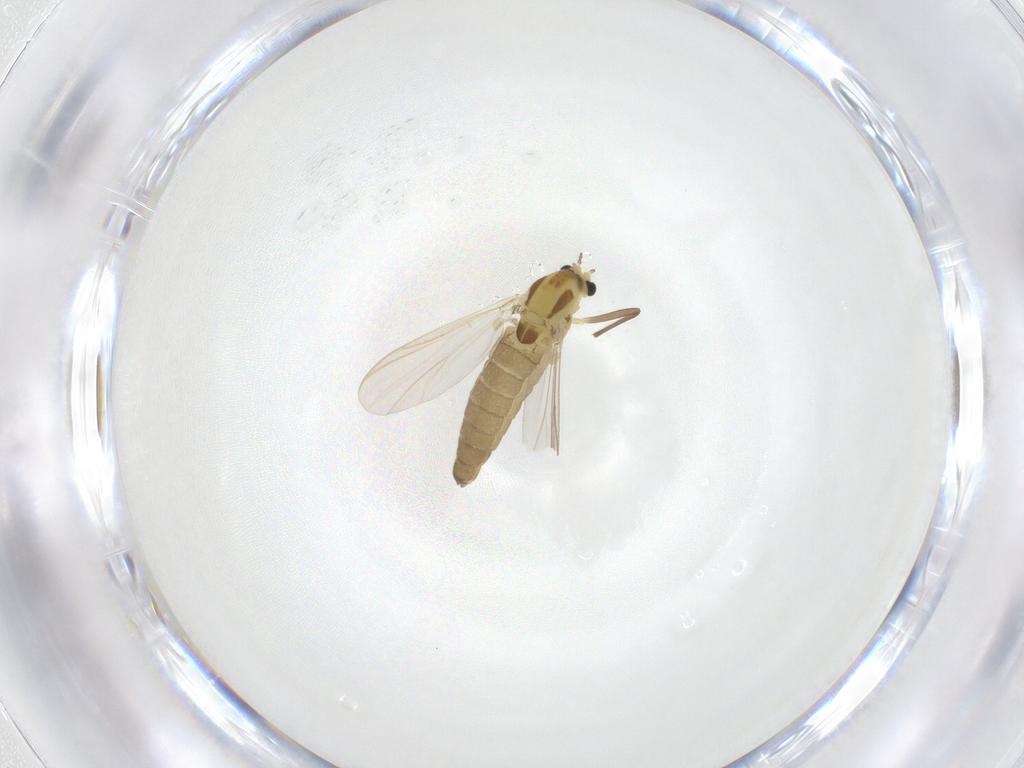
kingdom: Animalia
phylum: Arthropoda
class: Insecta
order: Diptera
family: Chironomidae
